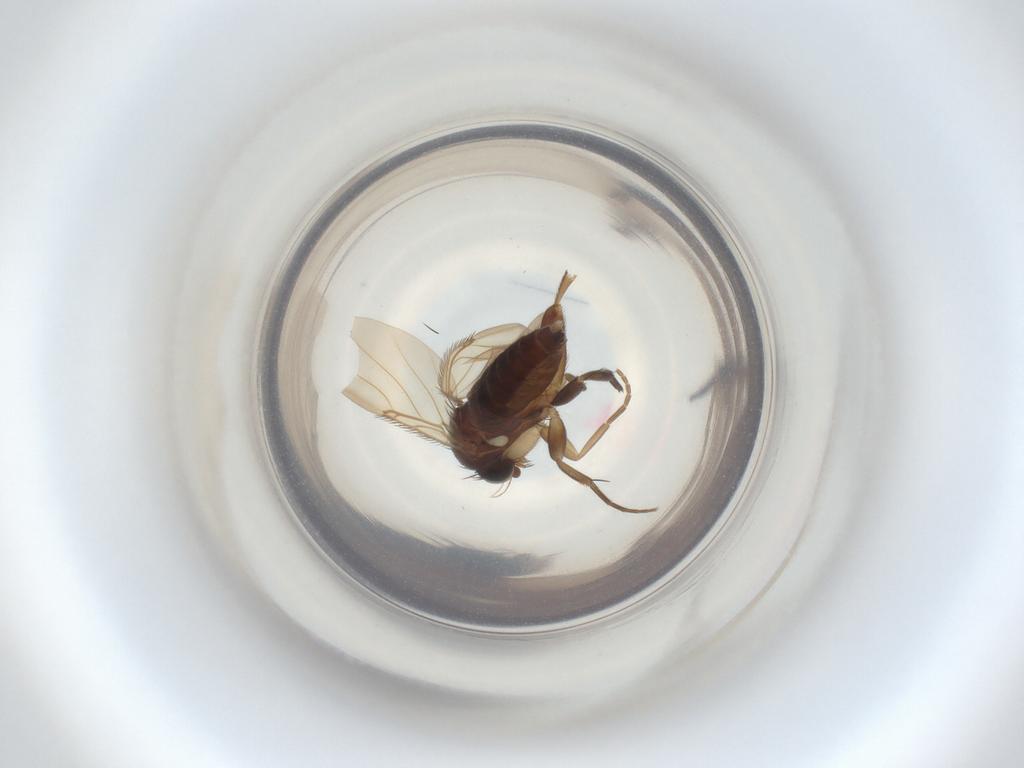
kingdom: Animalia
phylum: Arthropoda
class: Insecta
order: Diptera
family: Phoridae
